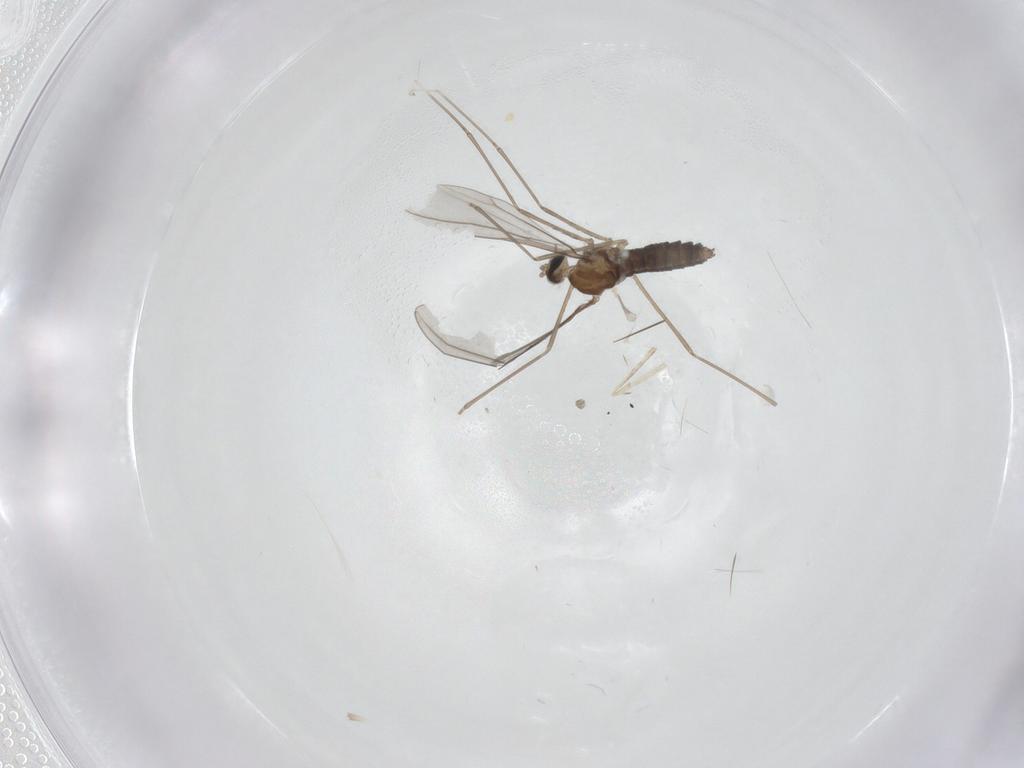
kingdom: Animalia
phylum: Arthropoda
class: Insecta
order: Diptera
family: Cecidomyiidae
